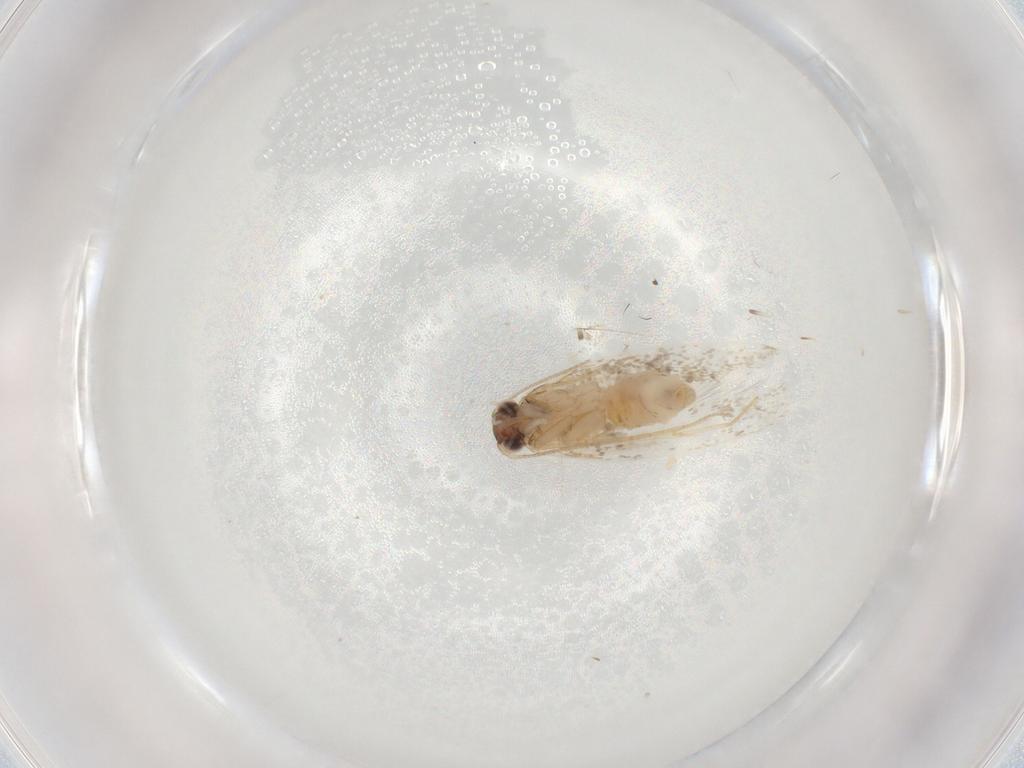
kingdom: Animalia
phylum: Arthropoda
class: Insecta
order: Lepidoptera
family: Tineidae
